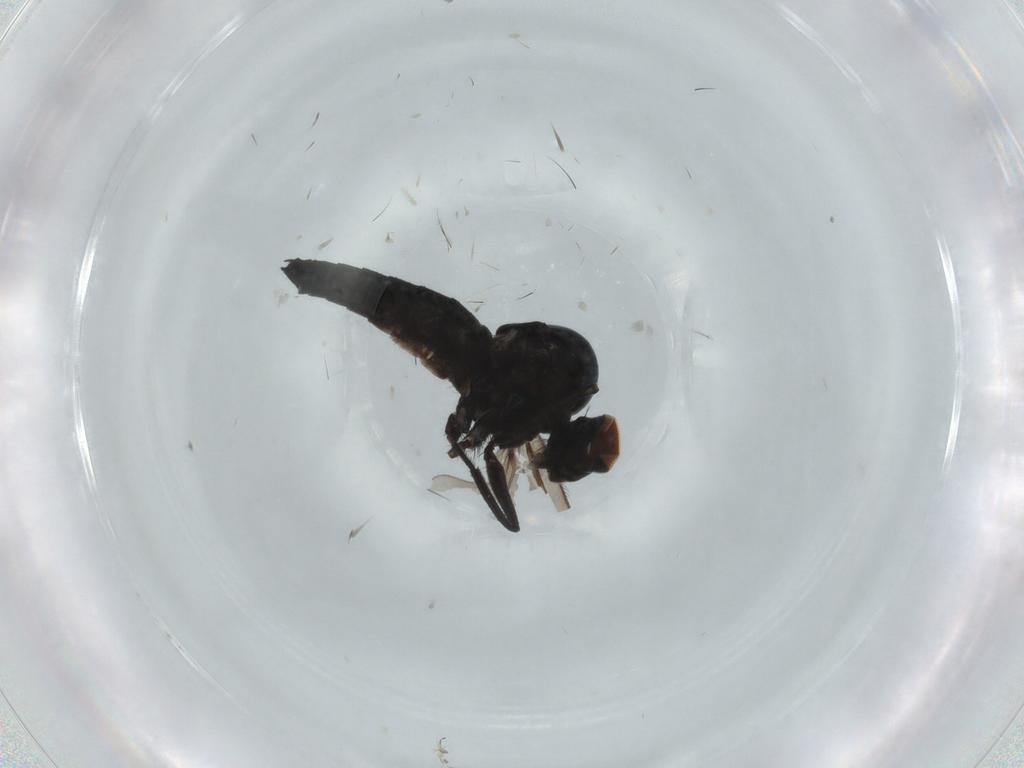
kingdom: Animalia
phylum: Arthropoda
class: Insecta
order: Diptera
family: Hybotidae
